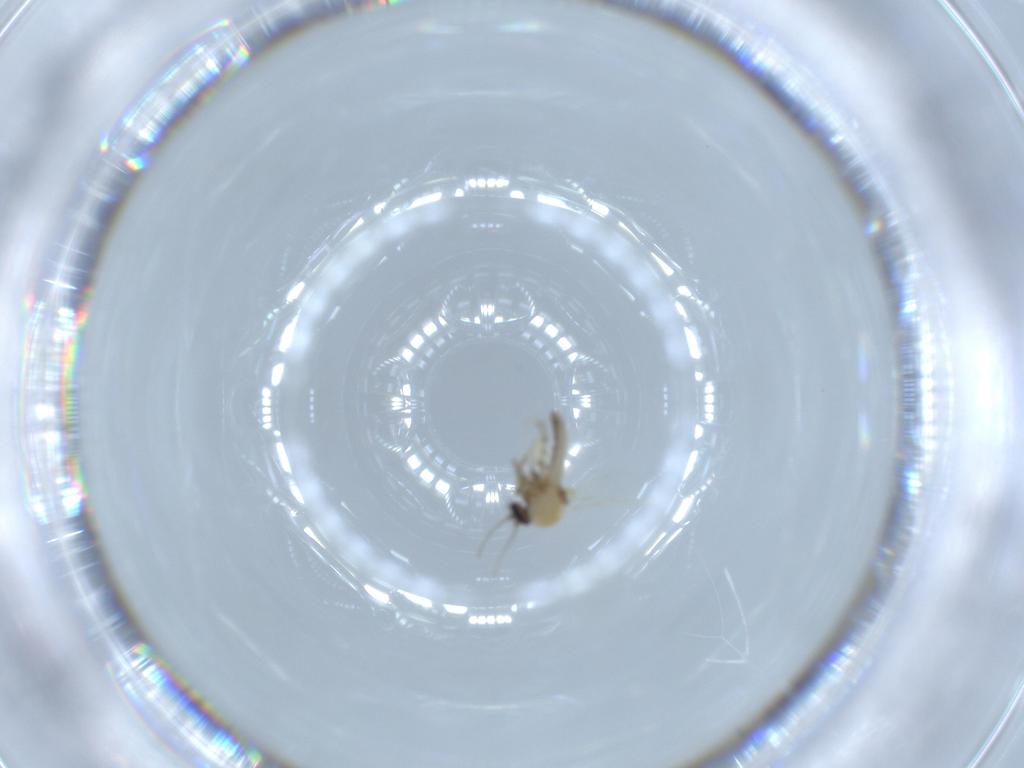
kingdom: Animalia
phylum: Arthropoda
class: Insecta
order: Diptera
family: Ceratopogonidae
